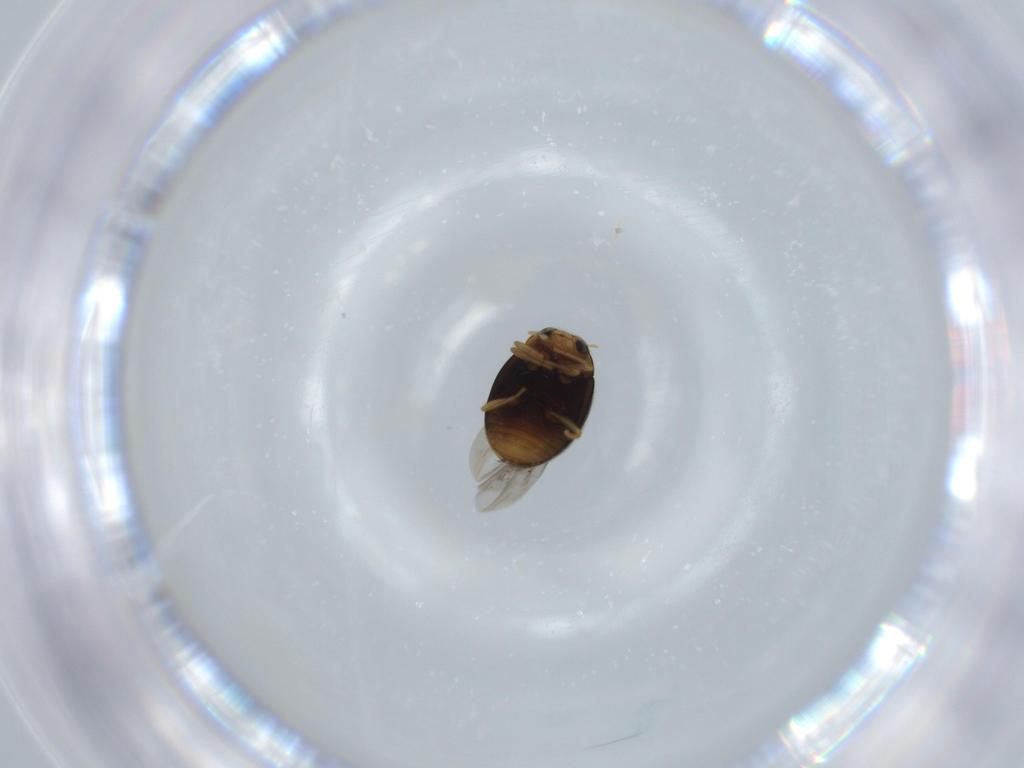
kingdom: Animalia
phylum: Arthropoda
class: Insecta
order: Coleoptera
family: Coccinellidae
